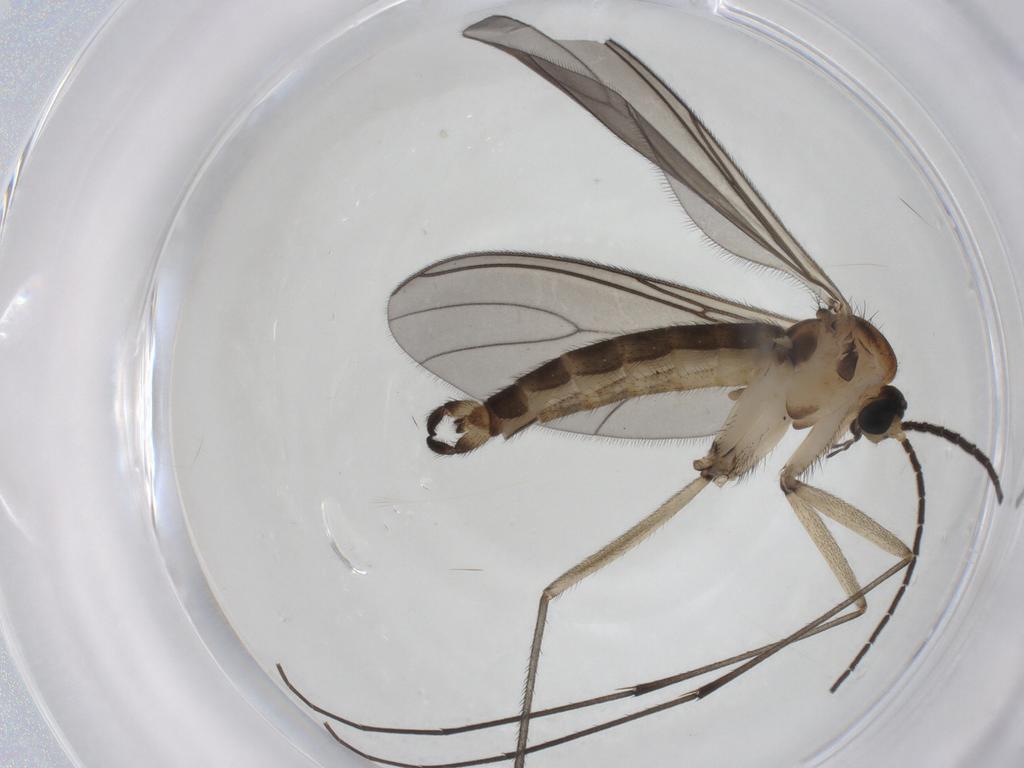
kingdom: Animalia
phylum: Arthropoda
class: Insecta
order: Diptera
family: Sciaridae
